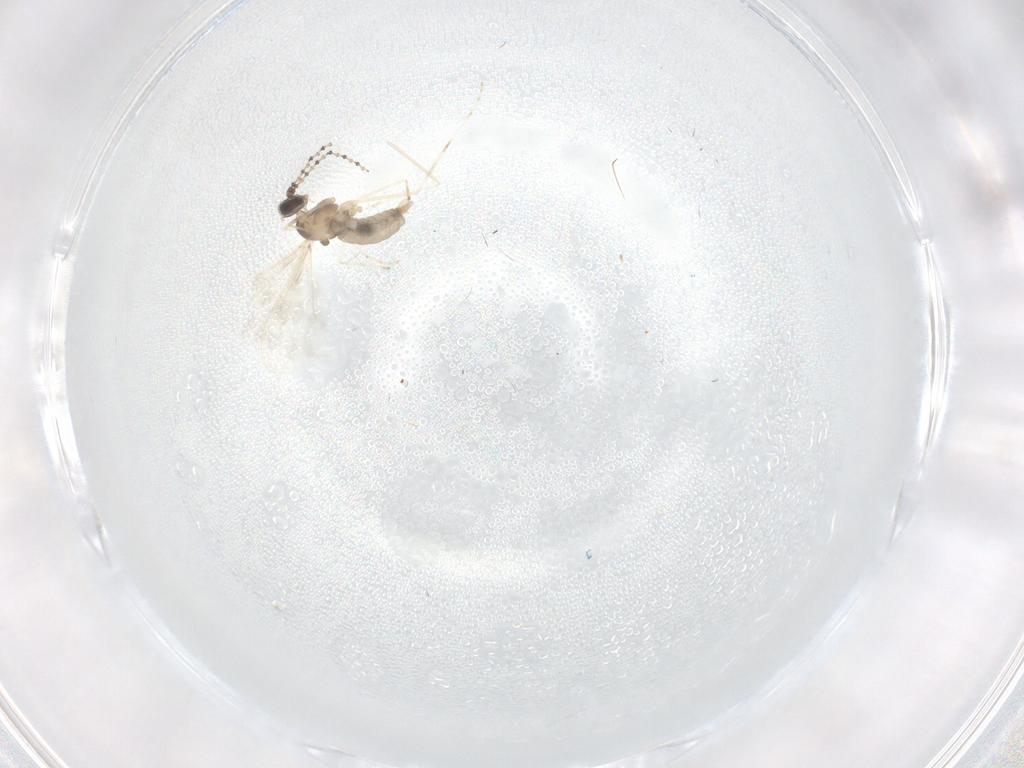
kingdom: Animalia
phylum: Arthropoda
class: Insecta
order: Diptera
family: Cecidomyiidae
